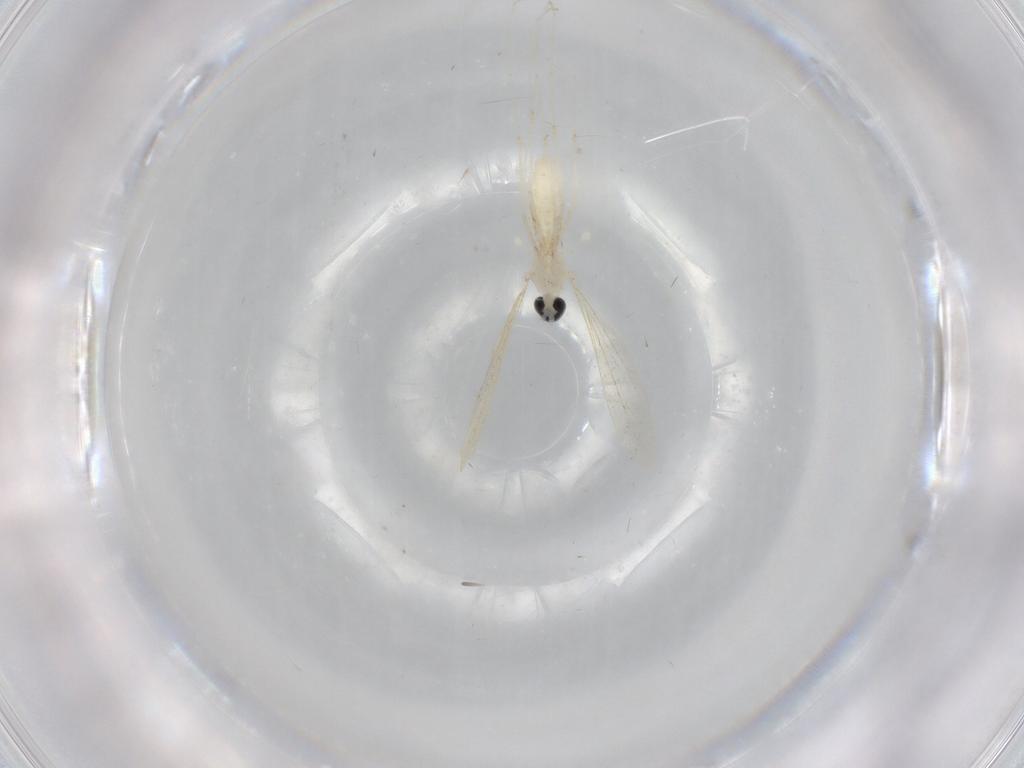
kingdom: Animalia
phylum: Arthropoda
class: Insecta
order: Diptera
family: Cecidomyiidae
